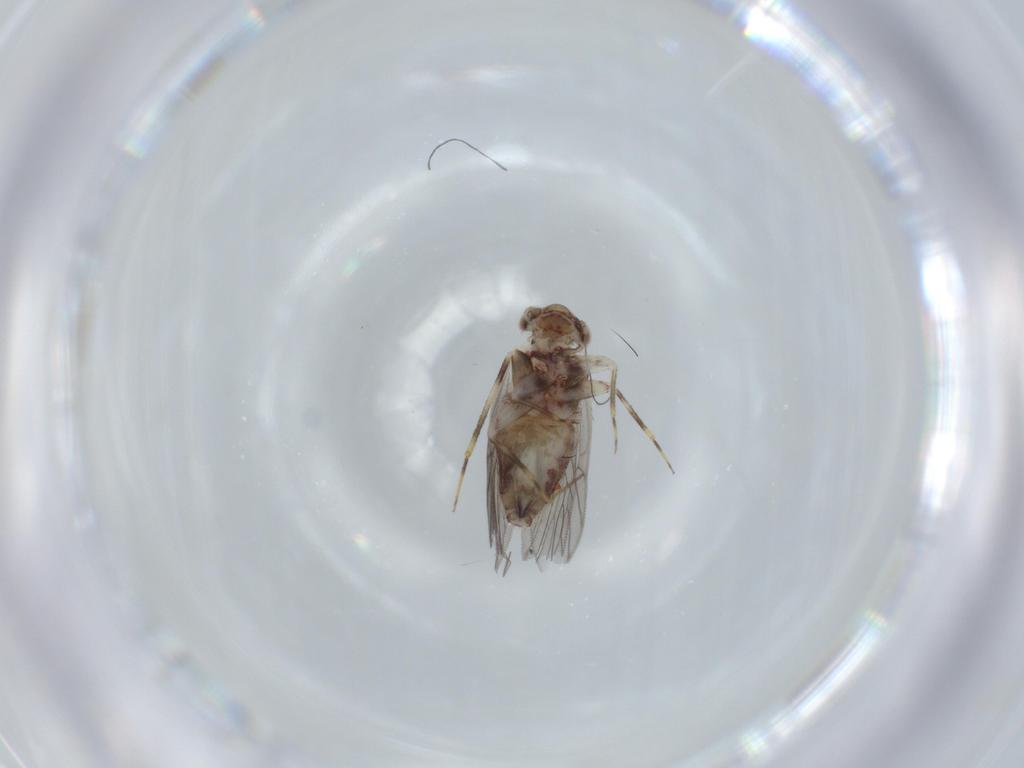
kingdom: Animalia
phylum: Arthropoda
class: Insecta
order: Psocodea
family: Lepidopsocidae
